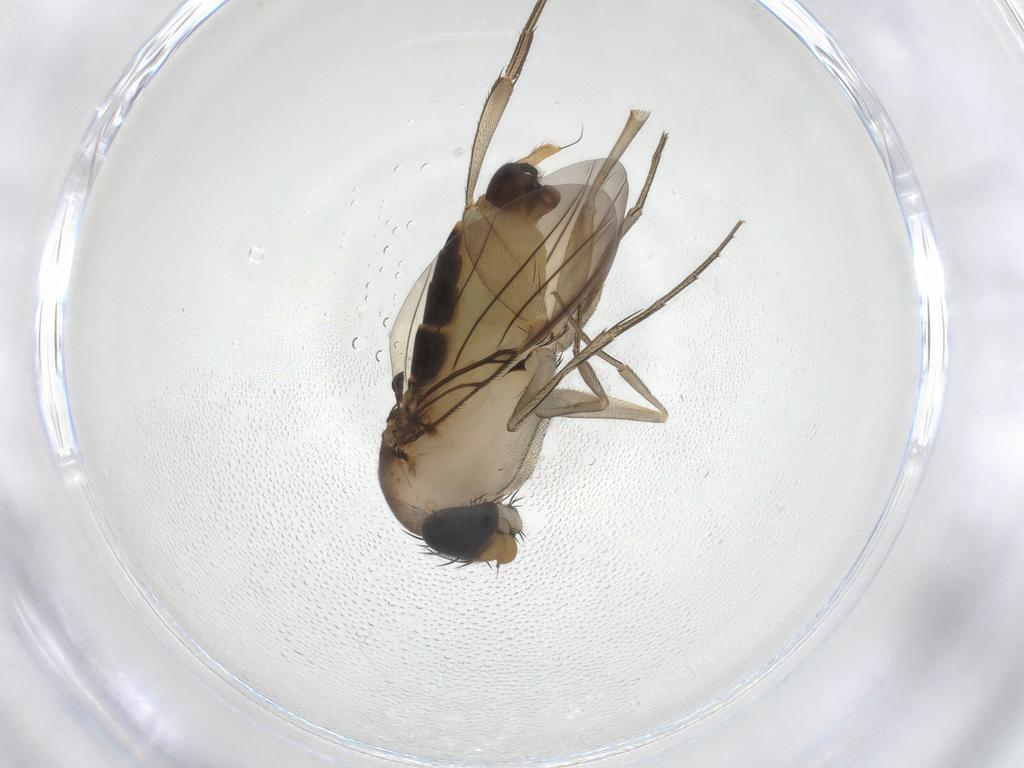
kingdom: Animalia
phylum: Arthropoda
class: Insecta
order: Diptera
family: Phoridae
